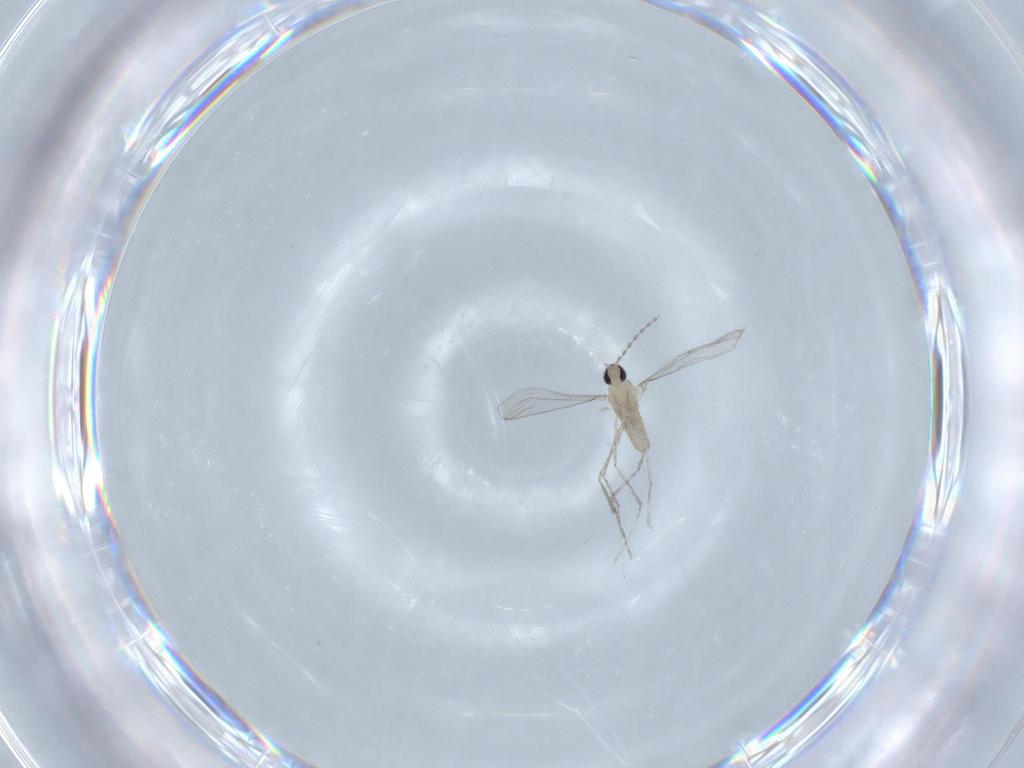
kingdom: Animalia
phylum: Arthropoda
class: Insecta
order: Diptera
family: Cecidomyiidae
